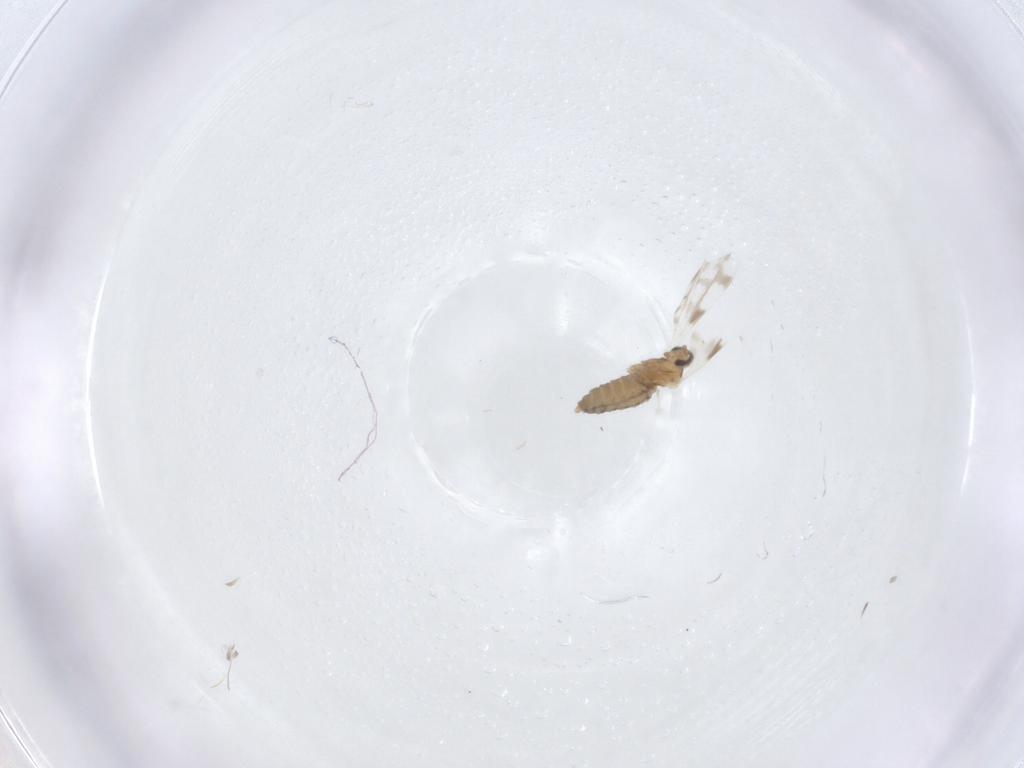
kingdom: Animalia
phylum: Arthropoda
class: Insecta
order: Diptera
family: Cecidomyiidae
